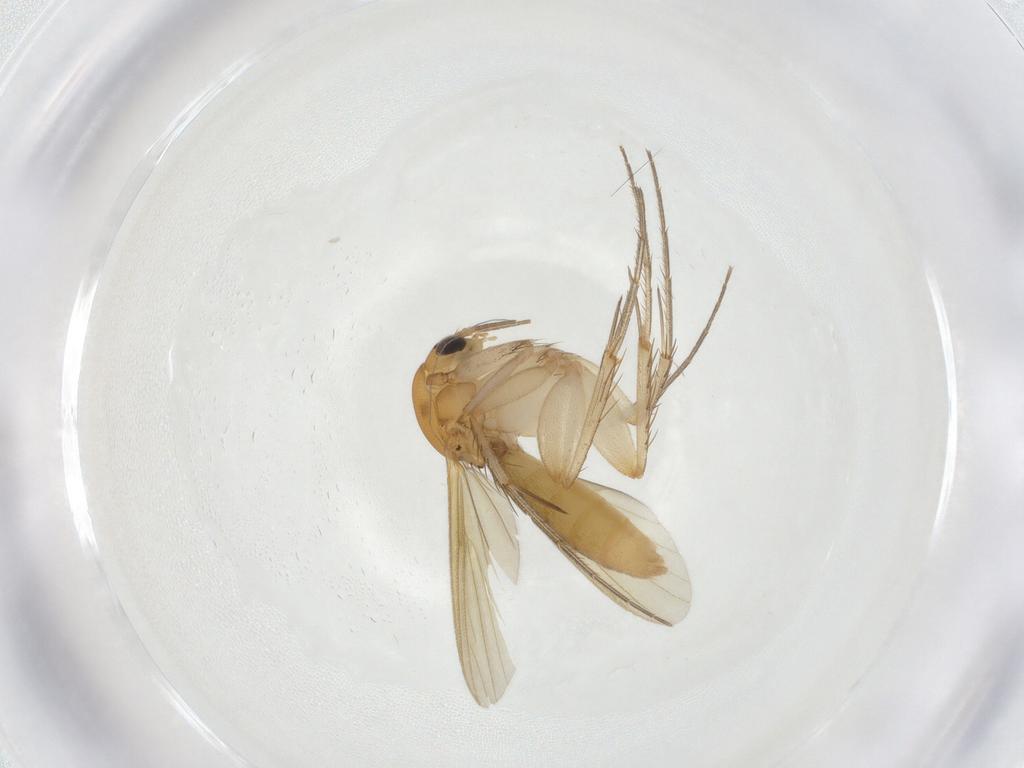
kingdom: Animalia
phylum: Arthropoda
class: Insecta
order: Diptera
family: Mycetophilidae
